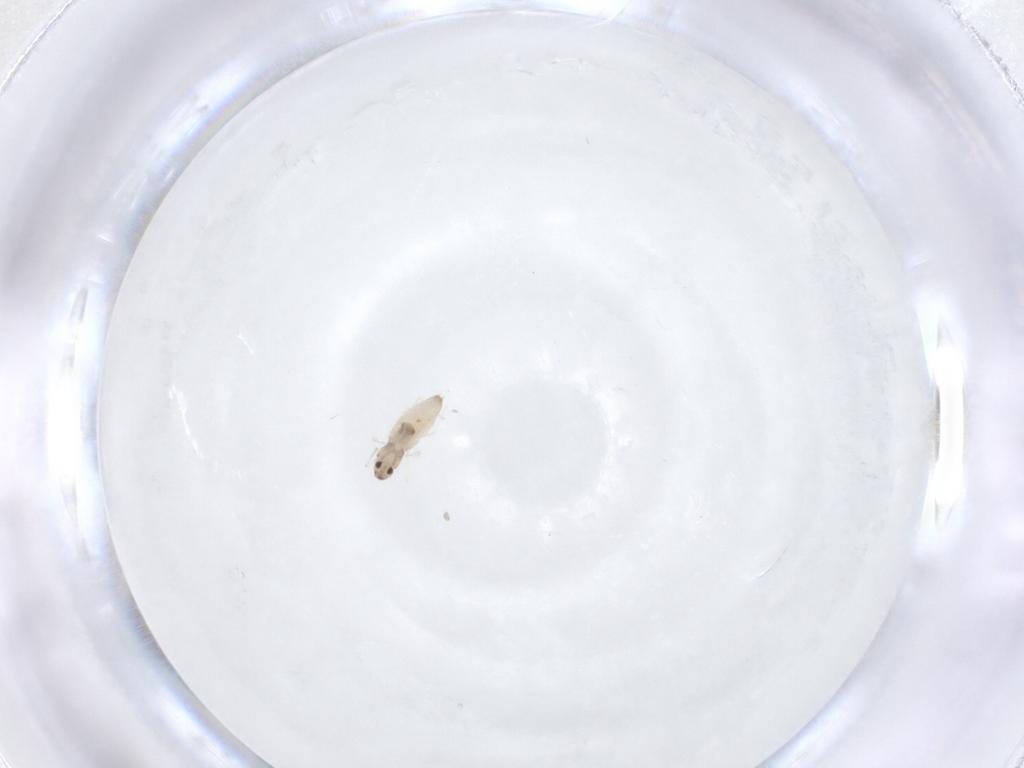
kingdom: Animalia
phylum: Arthropoda
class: Insecta
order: Diptera
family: Cecidomyiidae
